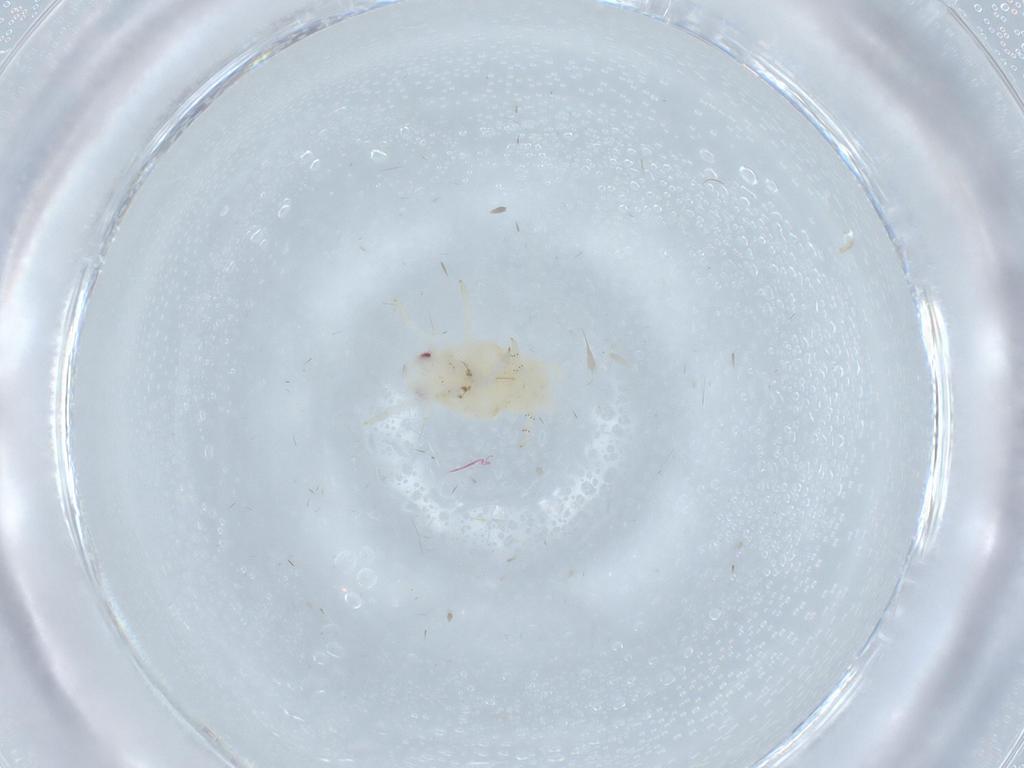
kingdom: Animalia
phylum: Arthropoda
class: Insecta
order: Hemiptera
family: Flatidae
